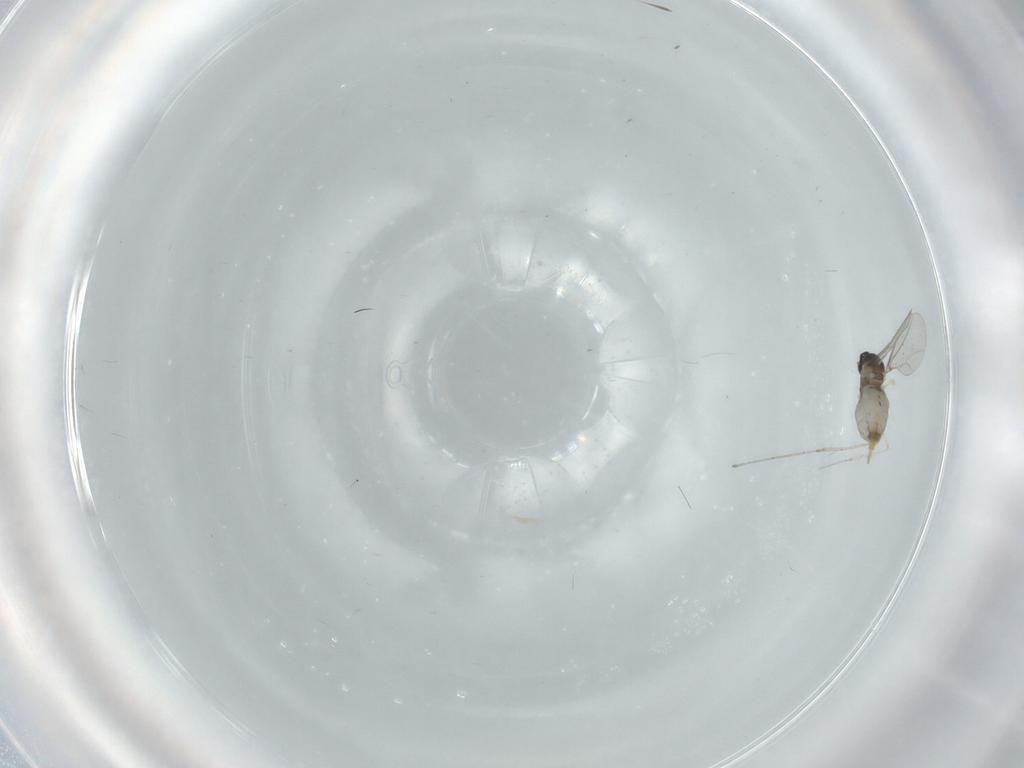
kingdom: Animalia
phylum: Arthropoda
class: Insecta
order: Diptera
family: Cecidomyiidae
